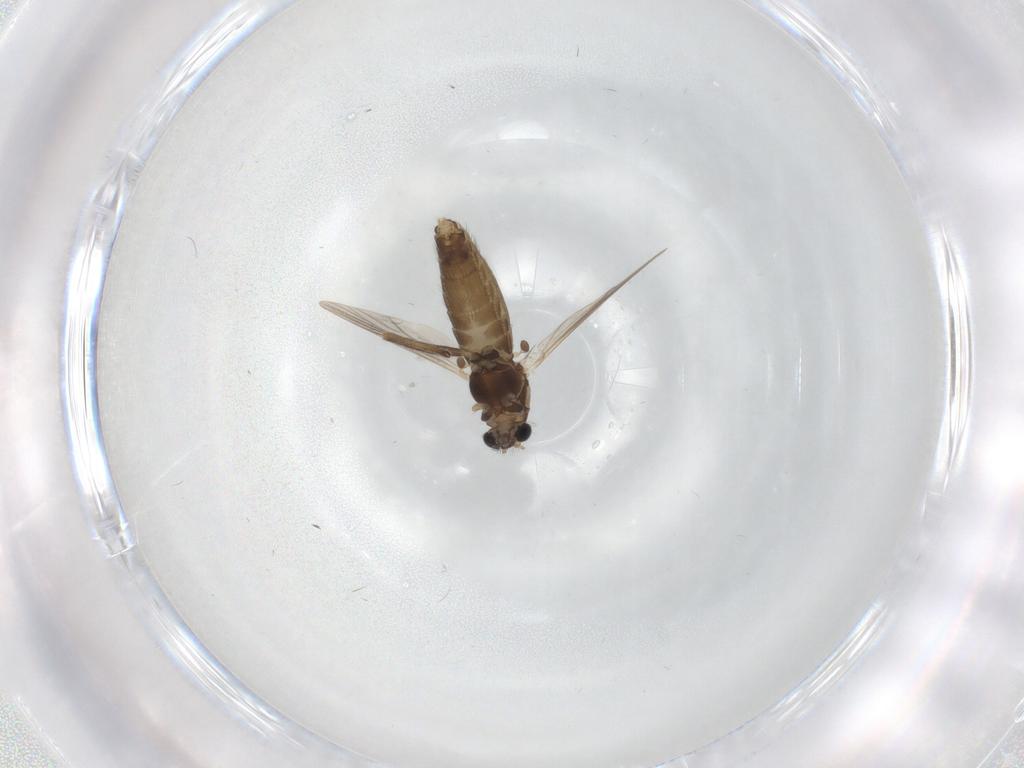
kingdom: Animalia
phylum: Arthropoda
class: Insecta
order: Diptera
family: Chironomidae
